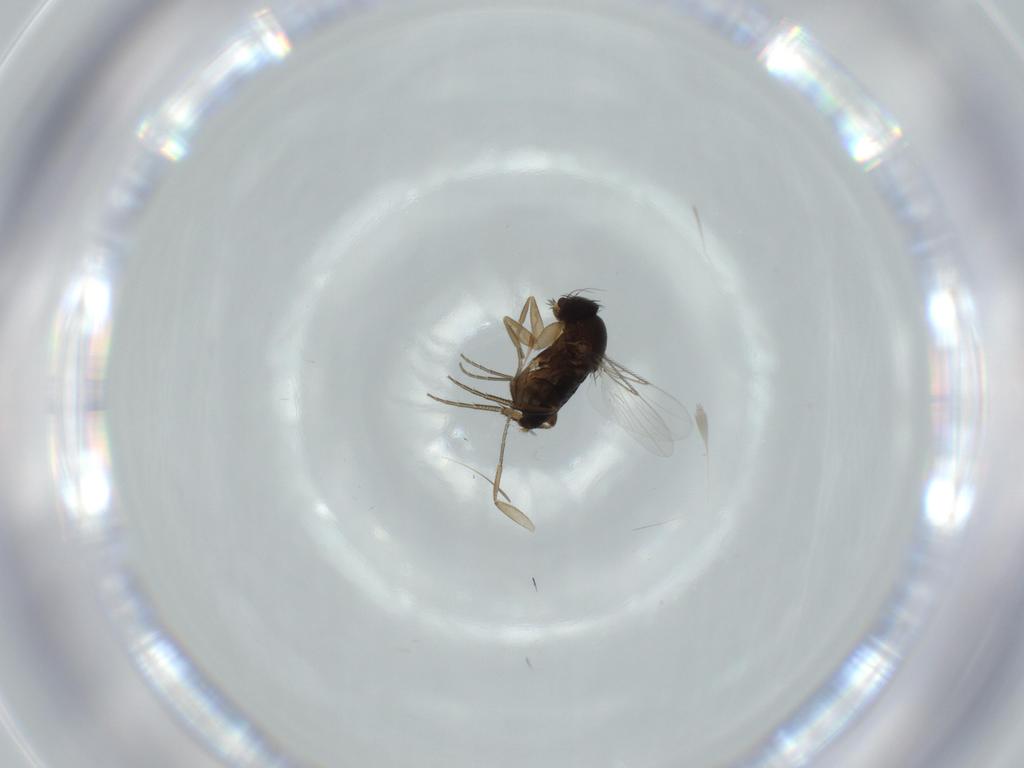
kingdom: Animalia
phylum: Arthropoda
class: Insecta
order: Diptera
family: Phoridae
